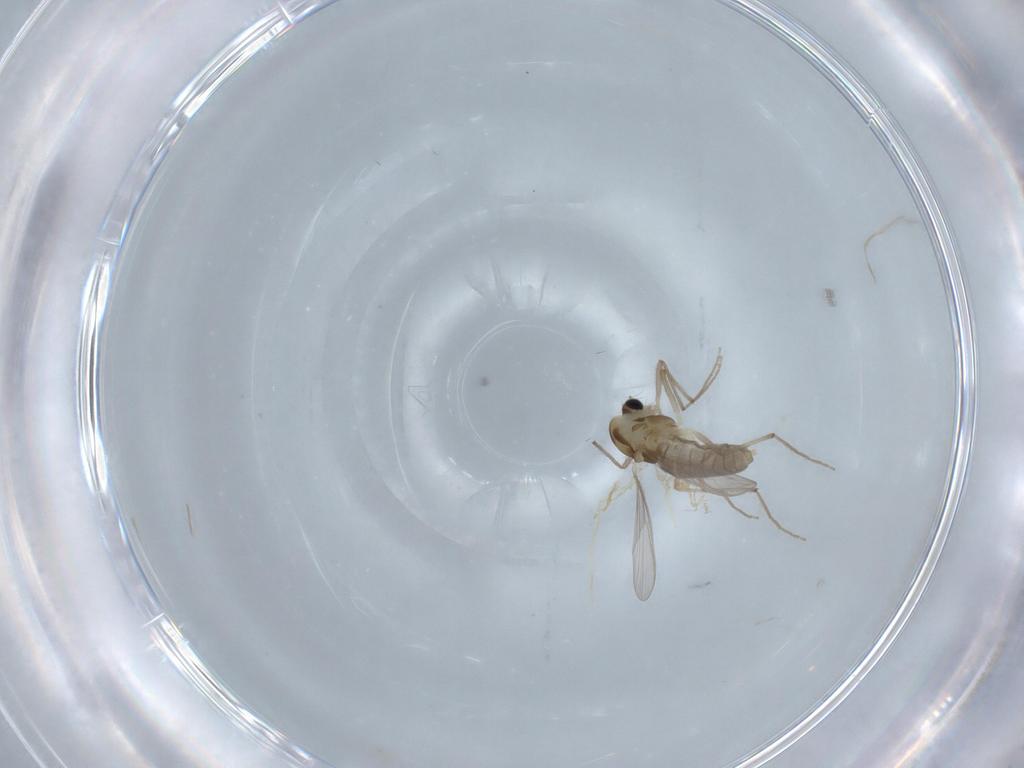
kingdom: Animalia
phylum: Arthropoda
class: Insecta
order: Diptera
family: Chironomidae
